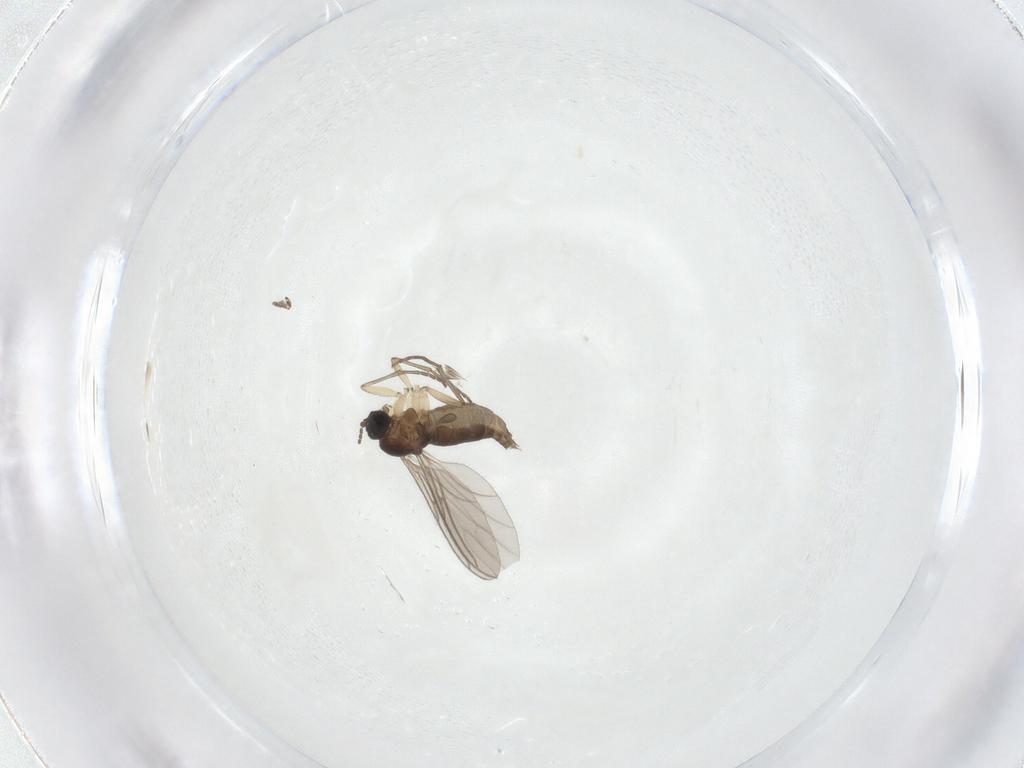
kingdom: Animalia
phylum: Arthropoda
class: Insecta
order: Diptera
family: Sciaridae
